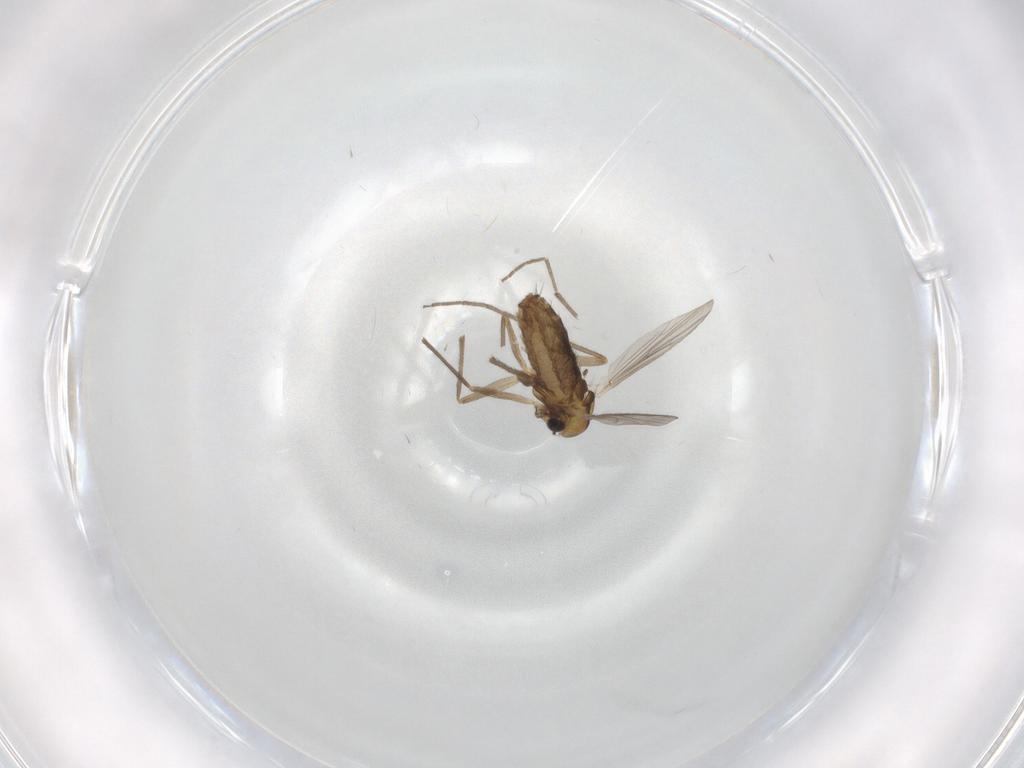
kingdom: Animalia
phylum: Arthropoda
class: Insecta
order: Diptera
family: Chironomidae
